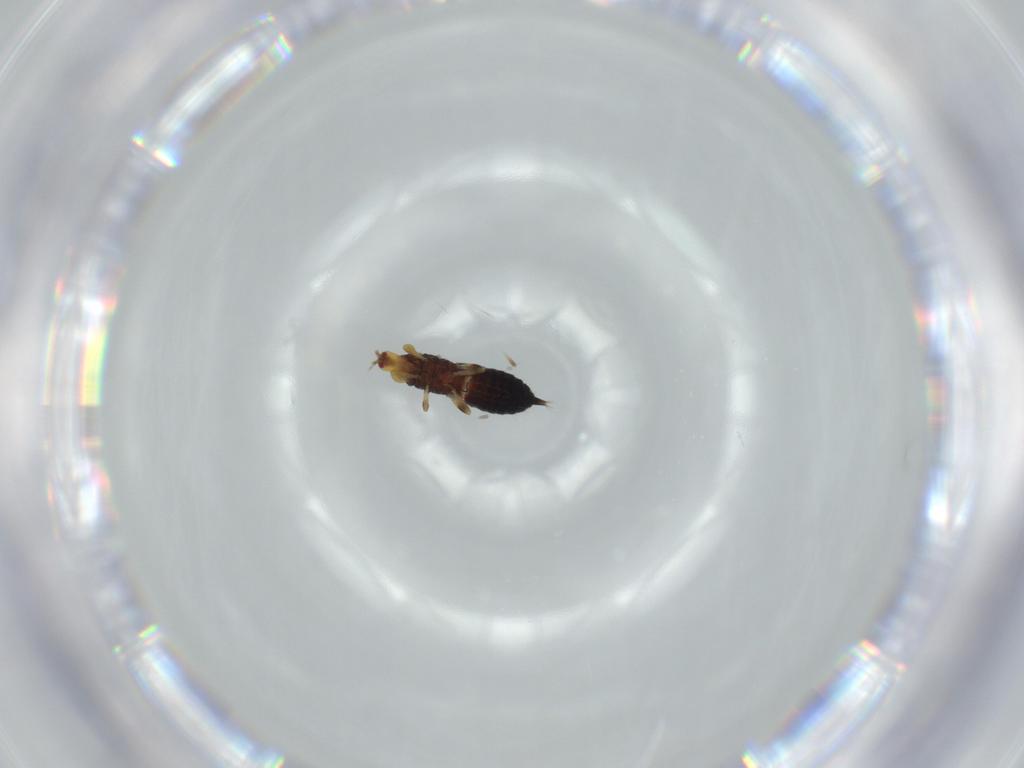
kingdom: Animalia
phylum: Arthropoda
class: Insecta
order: Thysanoptera
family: Phlaeothripidae
